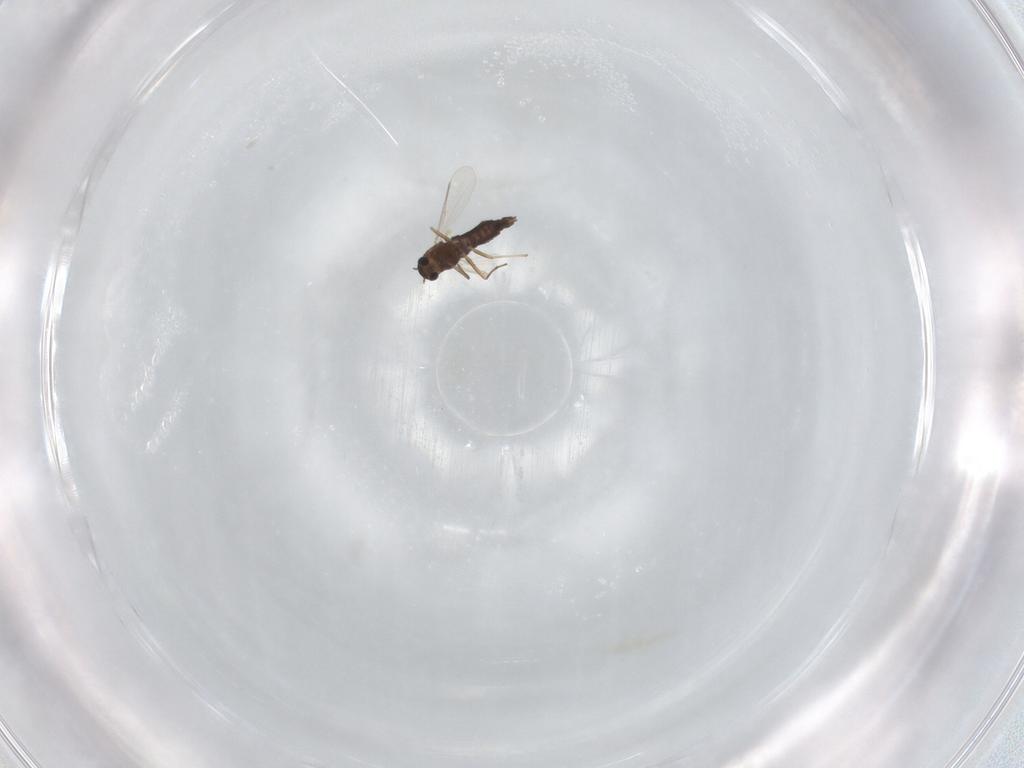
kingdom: Animalia
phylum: Arthropoda
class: Insecta
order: Diptera
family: Chironomidae
